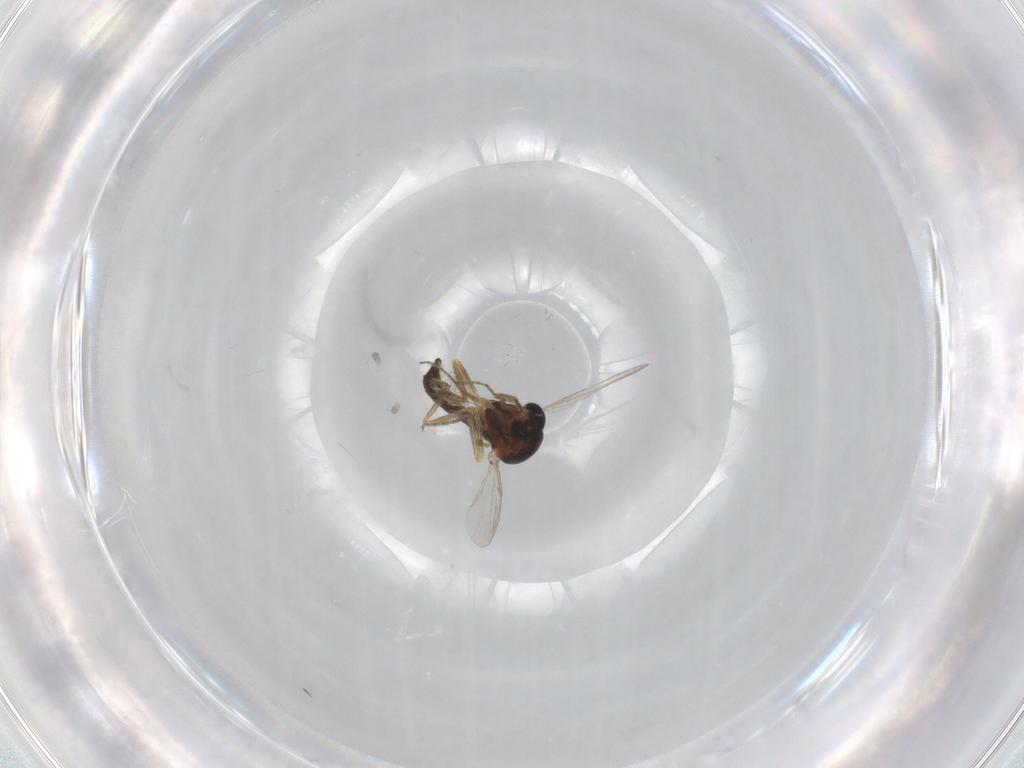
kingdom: Animalia
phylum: Arthropoda
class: Insecta
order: Diptera
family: Ceratopogonidae
